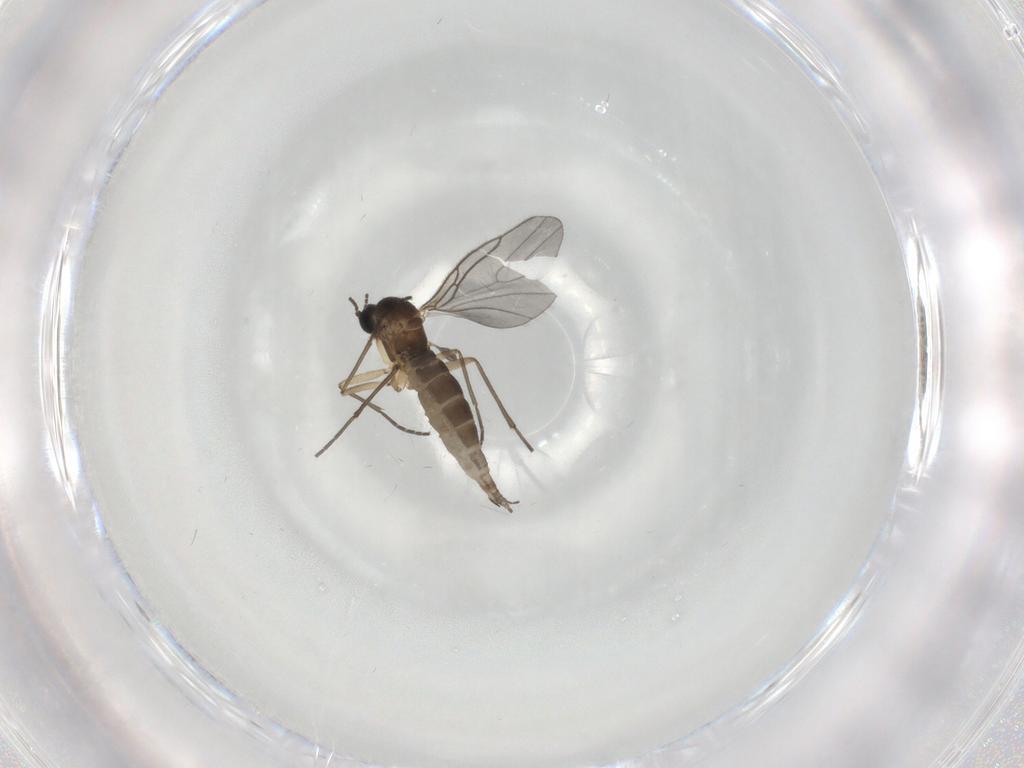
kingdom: Animalia
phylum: Arthropoda
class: Insecta
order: Diptera
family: Sciaridae
